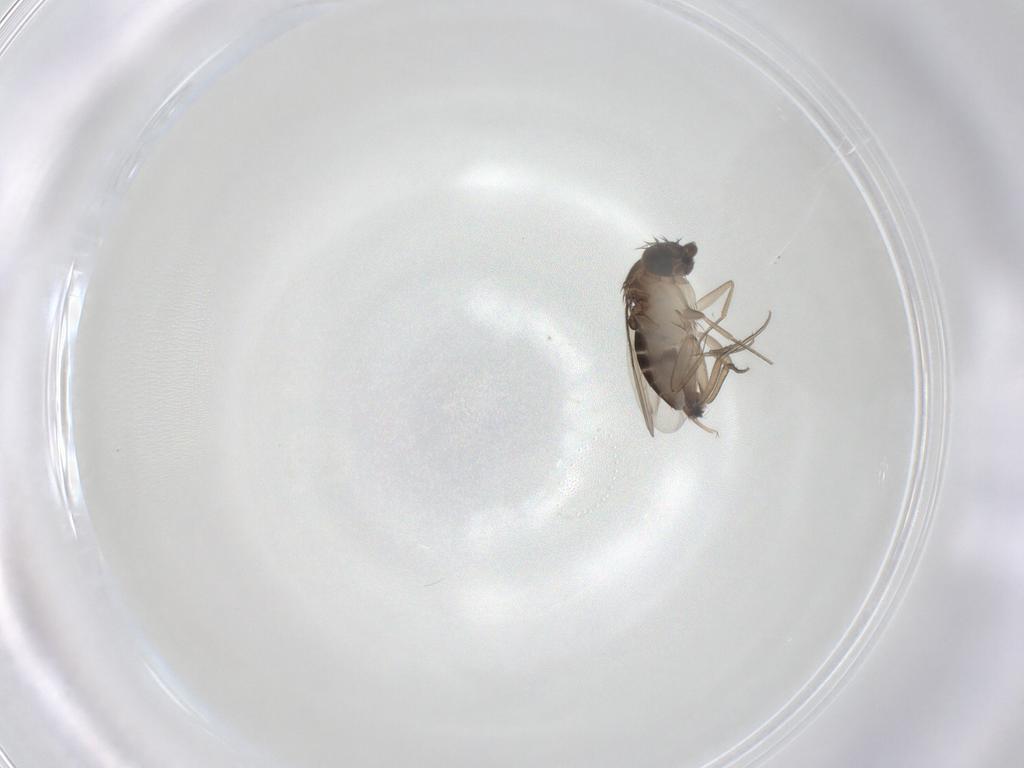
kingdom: Animalia
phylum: Arthropoda
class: Insecta
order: Diptera
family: Phoridae
